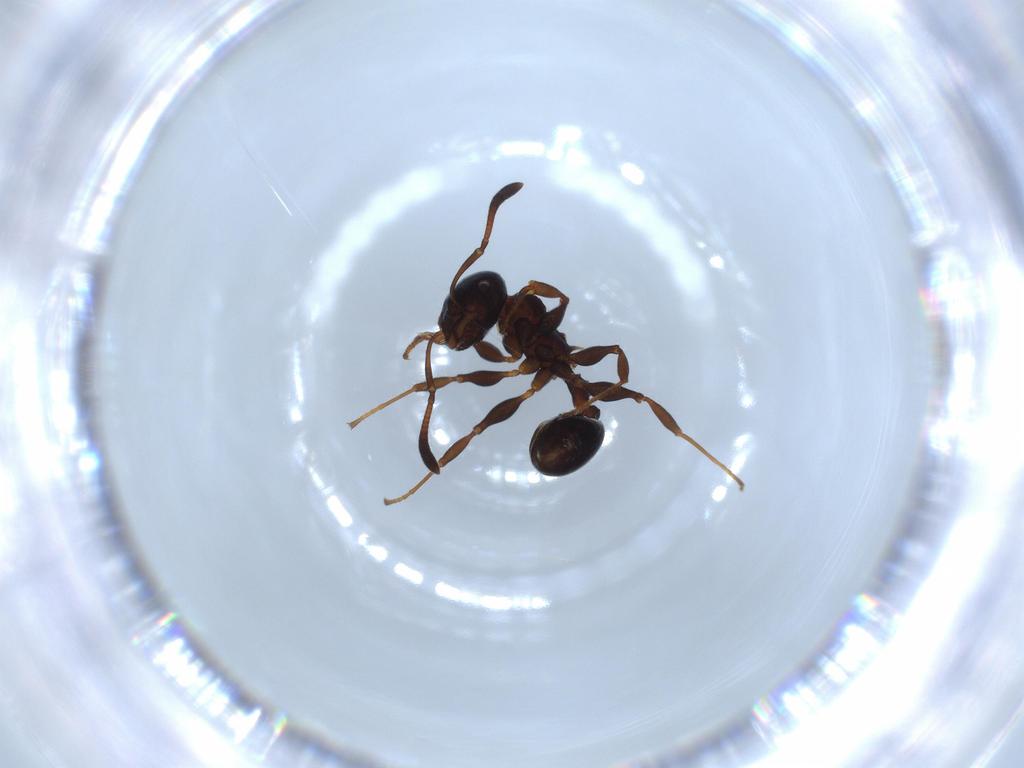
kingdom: Animalia
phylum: Arthropoda
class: Insecta
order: Hymenoptera
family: Formicidae
